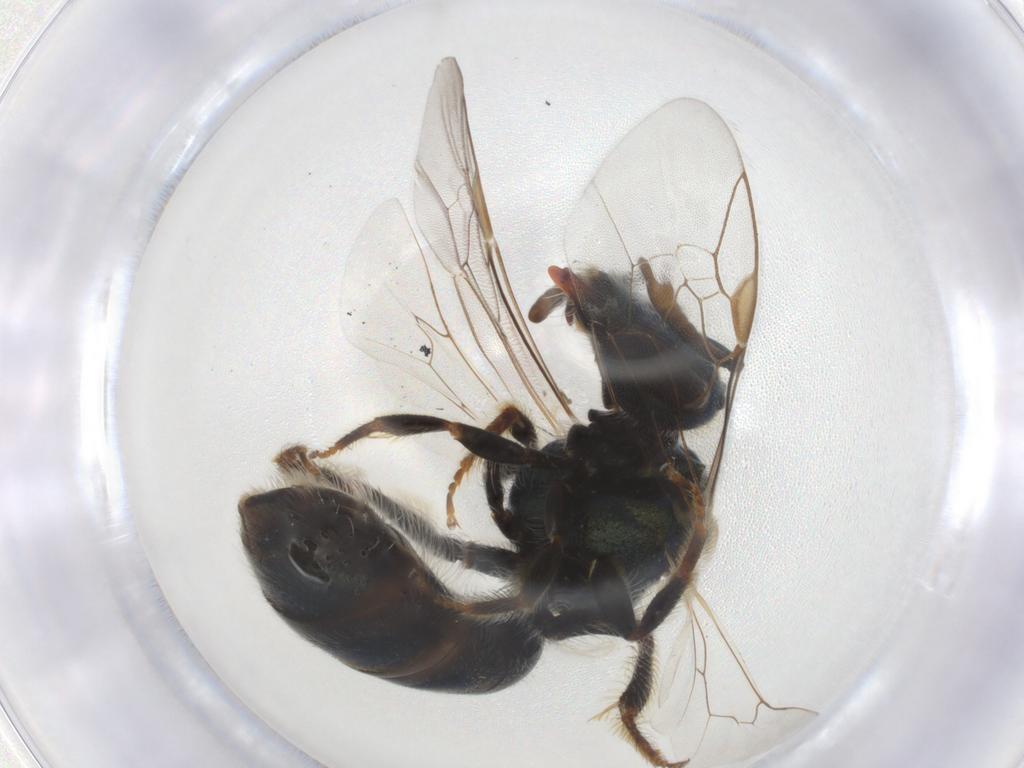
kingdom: Animalia
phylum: Arthropoda
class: Insecta
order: Hymenoptera
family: Halictidae
